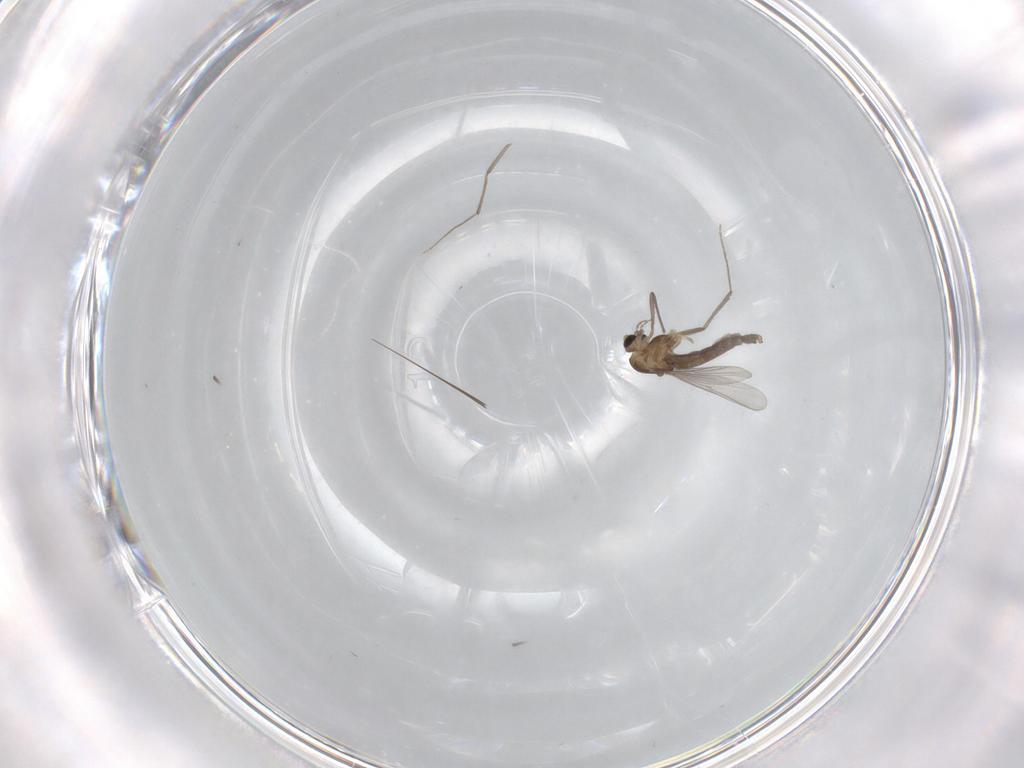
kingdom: Animalia
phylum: Arthropoda
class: Insecta
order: Diptera
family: Chironomidae
